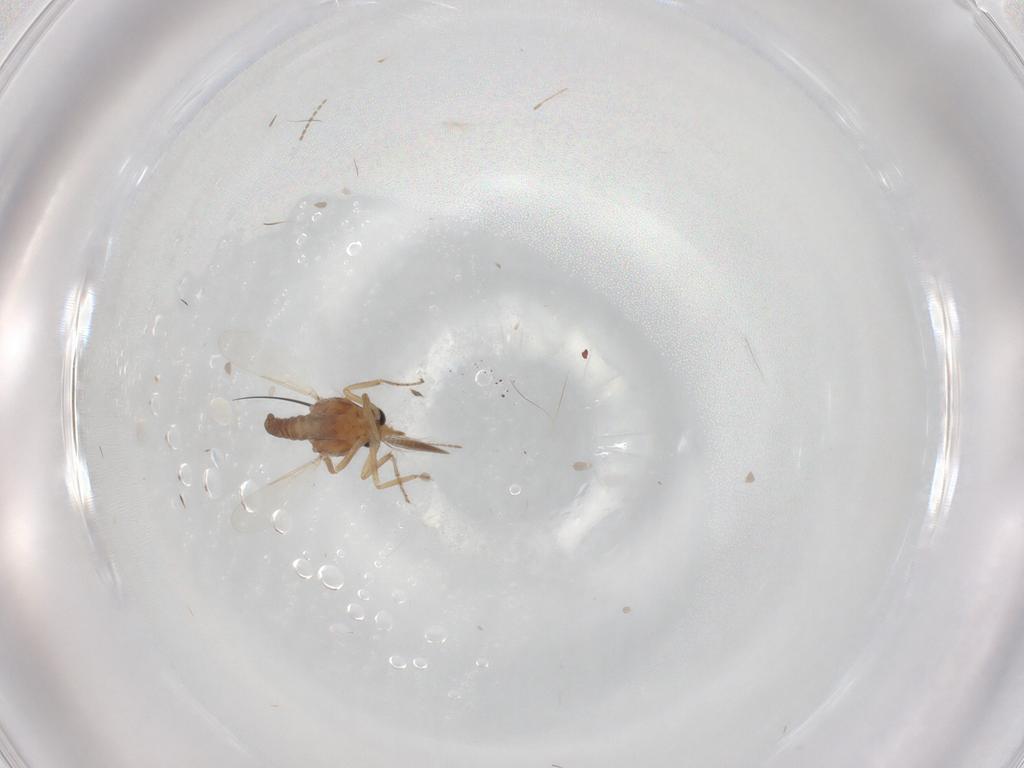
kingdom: Animalia
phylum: Arthropoda
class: Insecta
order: Diptera
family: Ceratopogonidae
